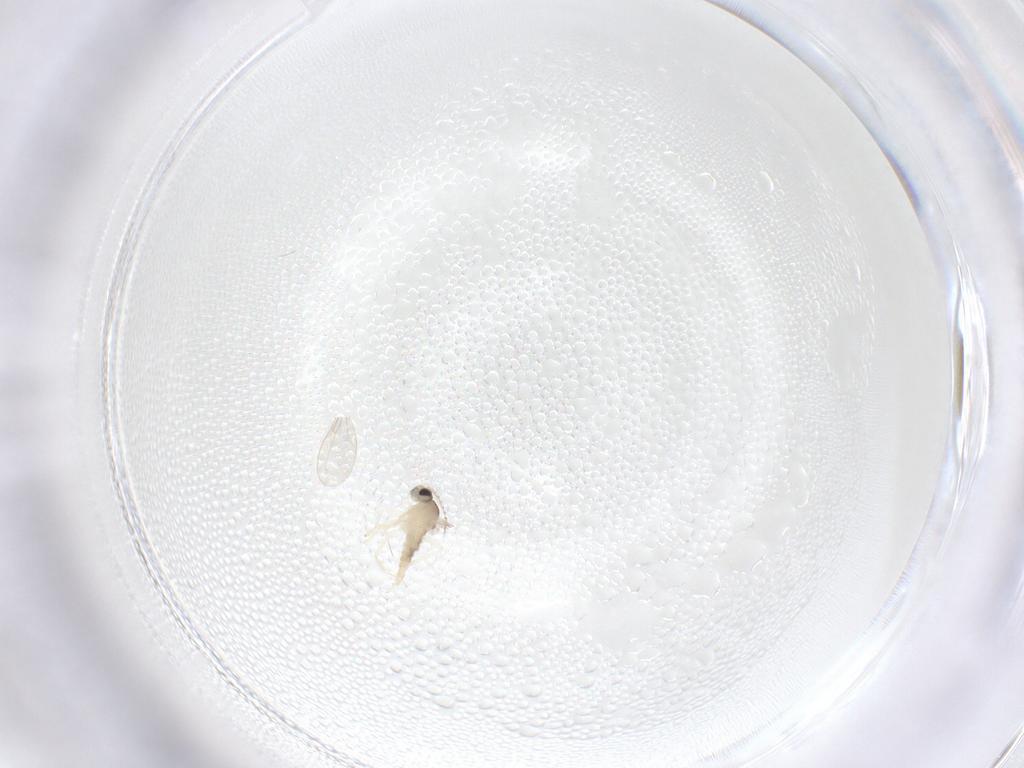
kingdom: Animalia
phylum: Arthropoda
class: Insecta
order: Diptera
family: Cecidomyiidae
